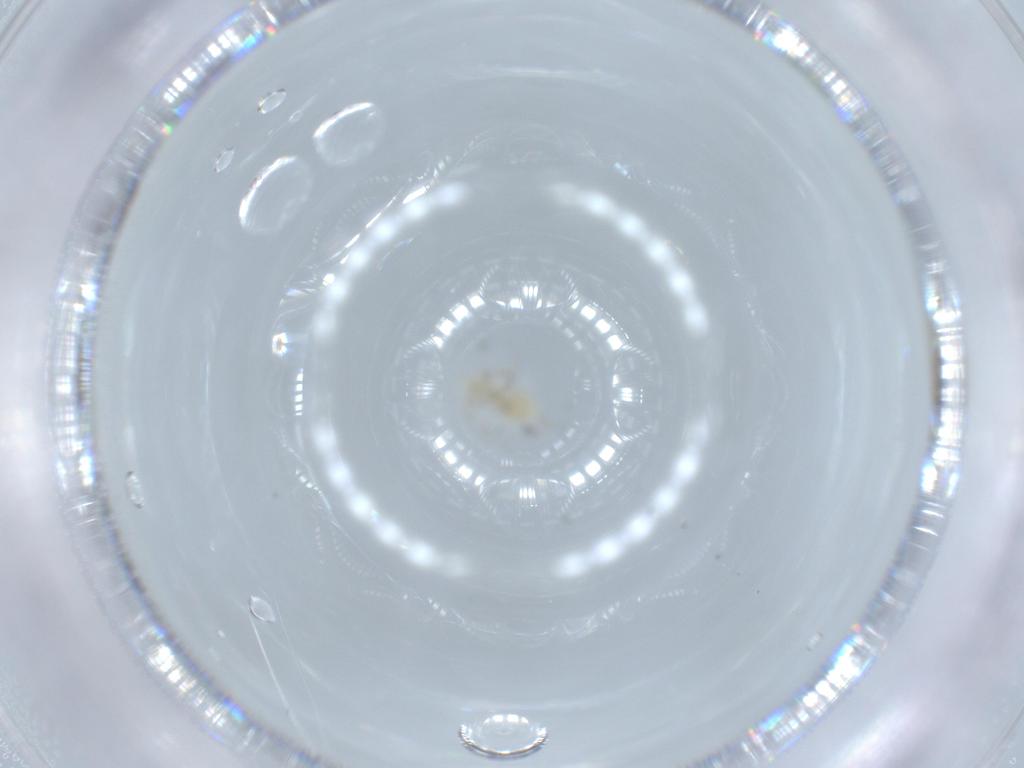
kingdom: Animalia
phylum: Arthropoda
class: Insecta
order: Psocodea
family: Caeciliusidae
